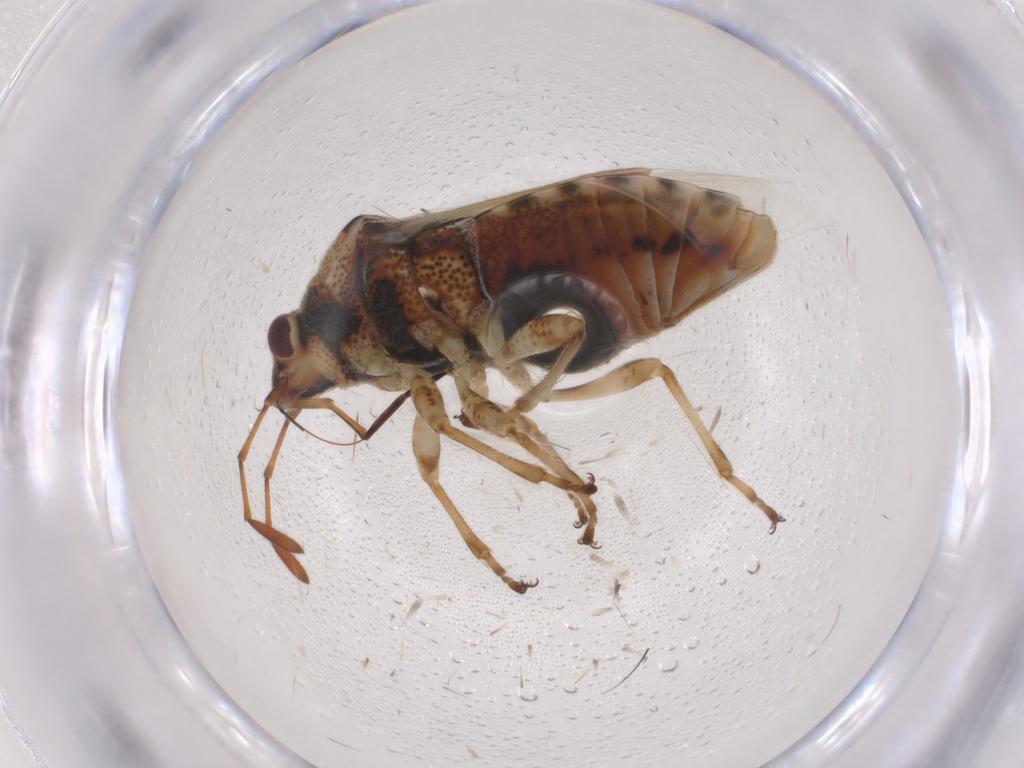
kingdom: Animalia
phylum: Arthropoda
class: Insecta
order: Hemiptera
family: Lygaeidae
